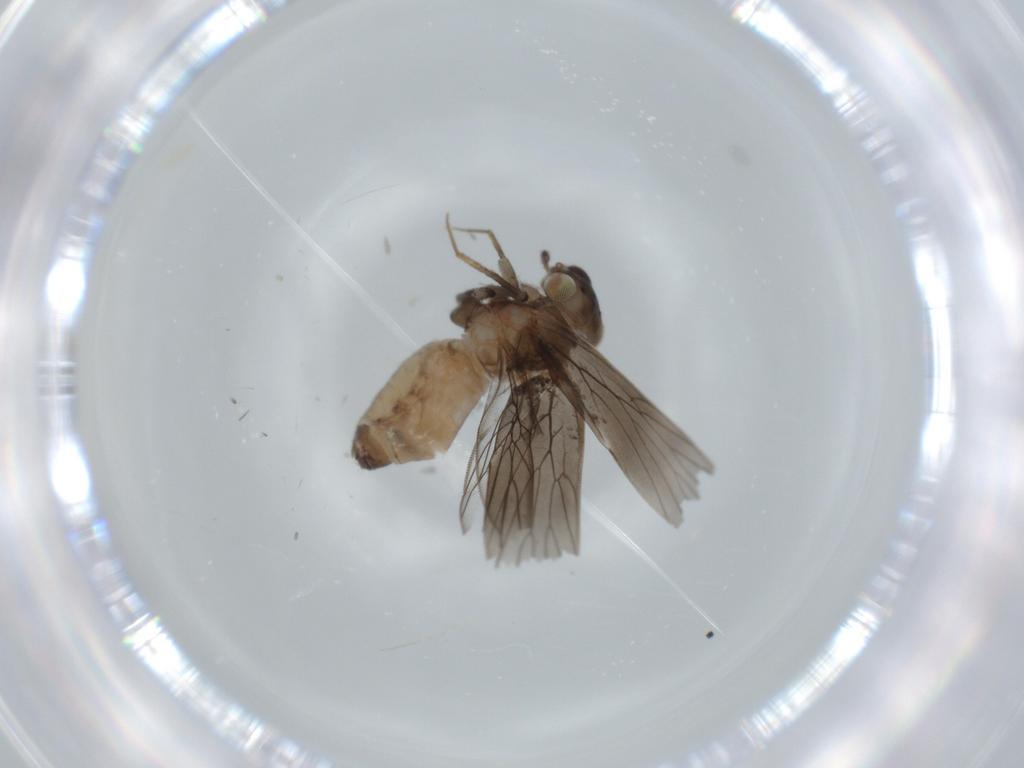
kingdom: Animalia
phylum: Arthropoda
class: Insecta
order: Psocodea
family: Lepidopsocidae
